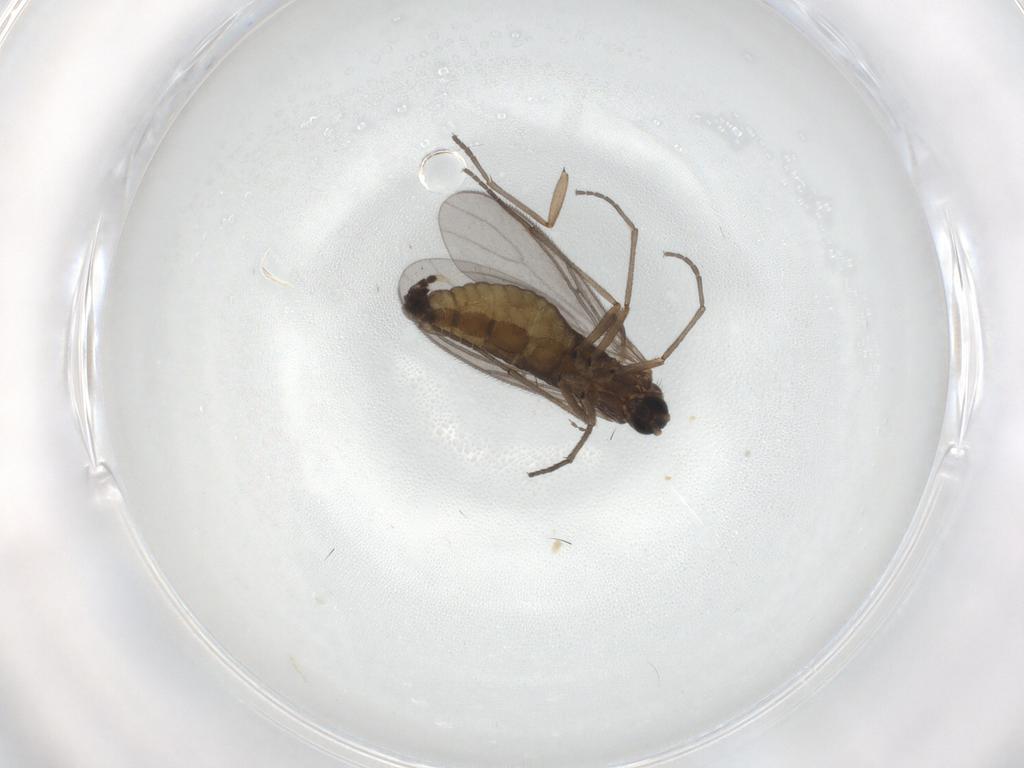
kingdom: Animalia
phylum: Arthropoda
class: Insecta
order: Diptera
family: Sciaridae
